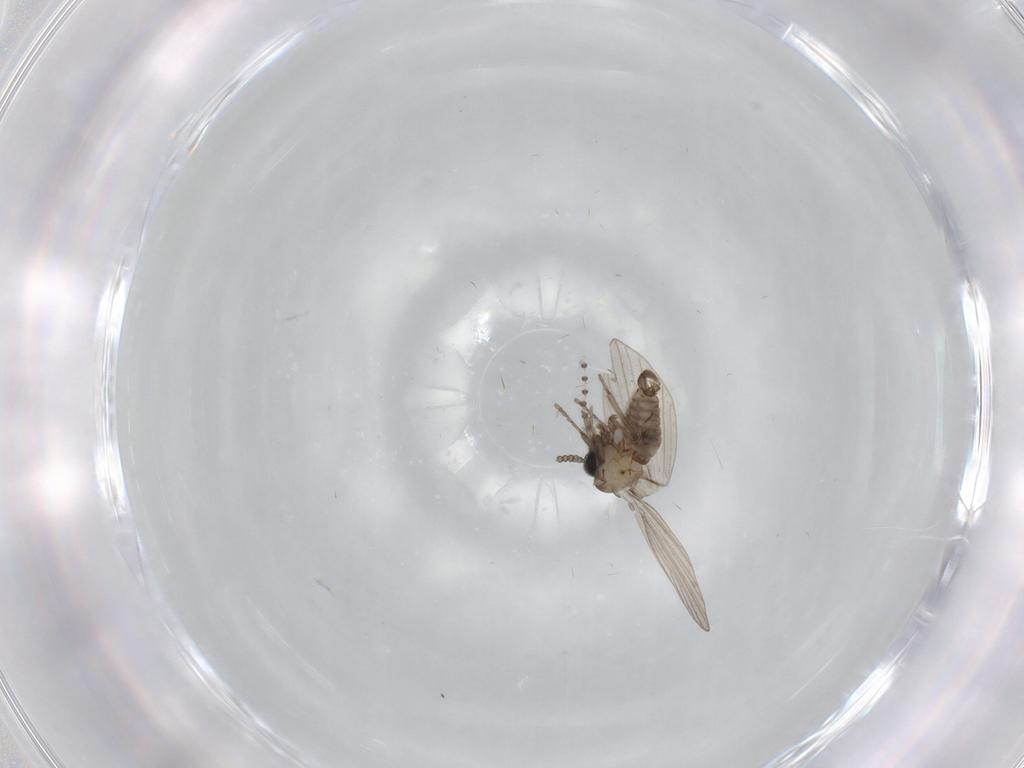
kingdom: Animalia
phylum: Arthropoda
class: Insecta
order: Diptera
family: Psychodidae
